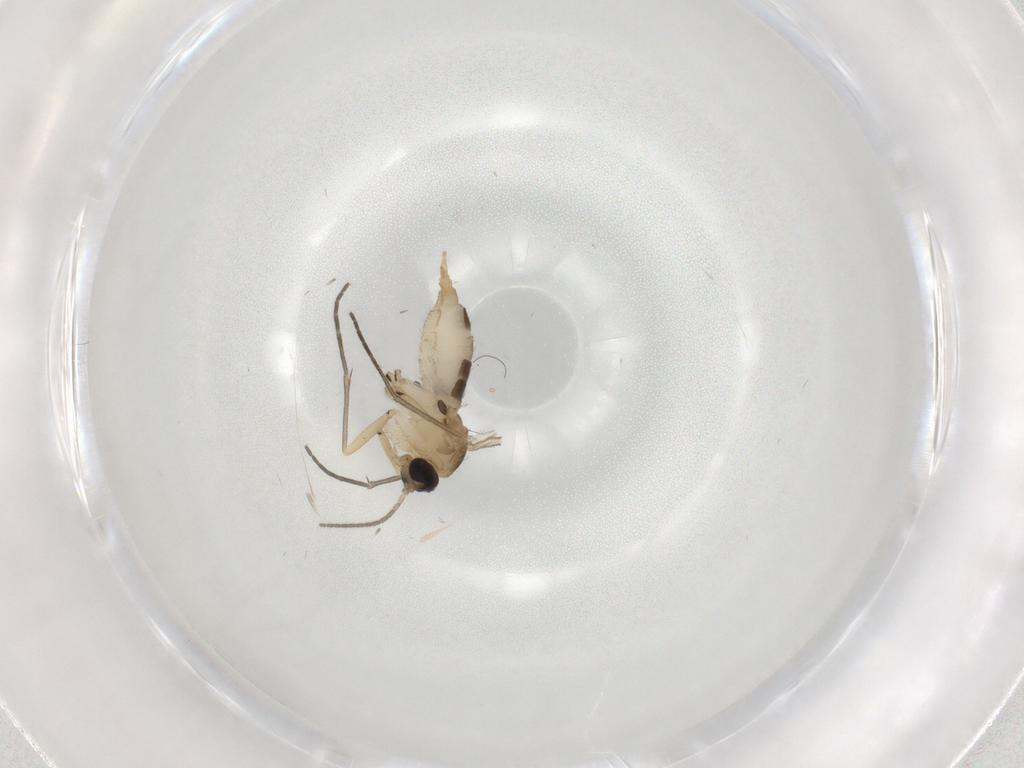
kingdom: Animalia
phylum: Arthropoda
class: Insecta
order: Diptera
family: Sciaridae
